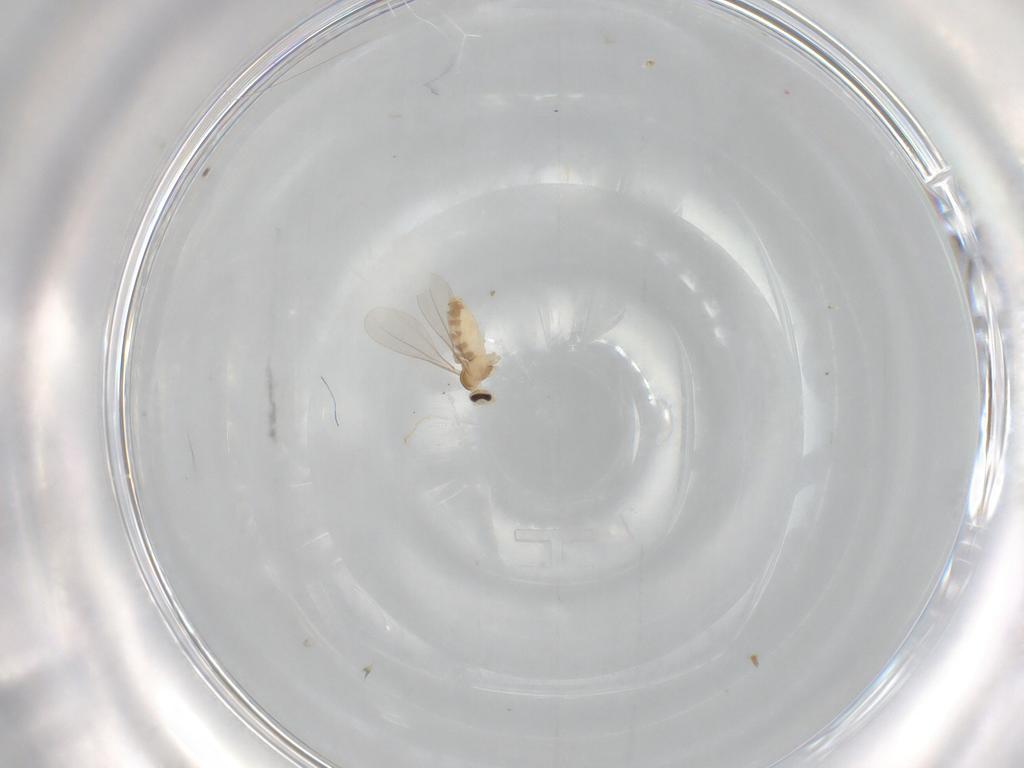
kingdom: Animalia
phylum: Arthropoda
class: Insecta
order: Diptera
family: Cecidomyiidae
